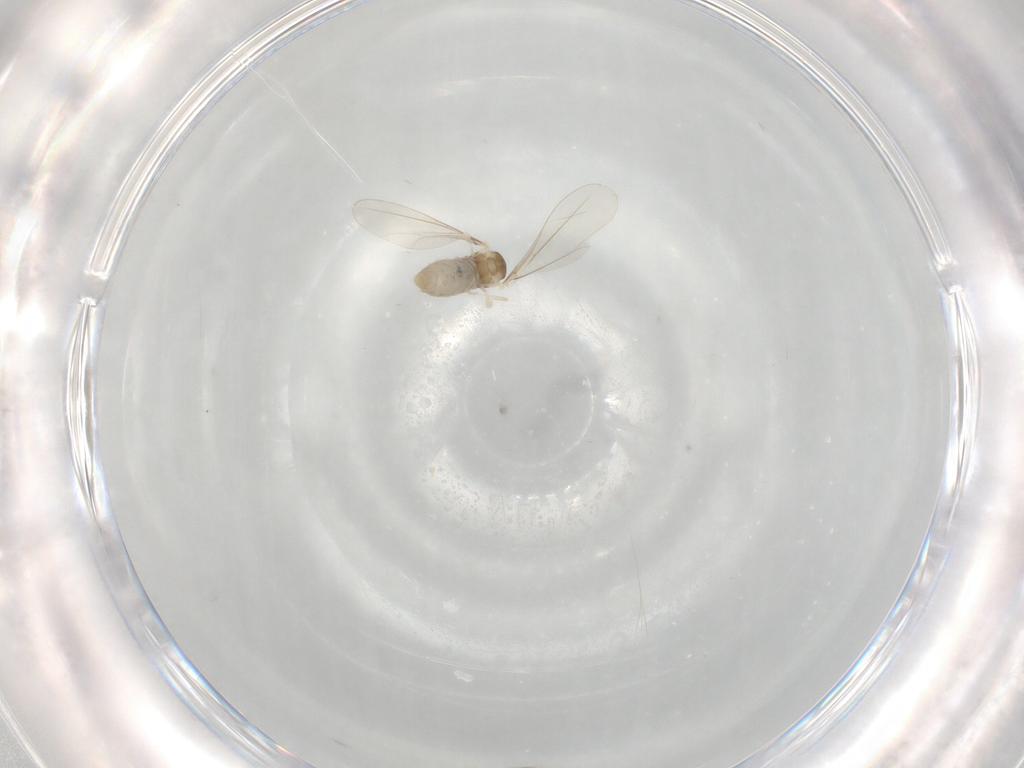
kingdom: Animalia
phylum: Arthropoda
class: Insecta
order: Diptera
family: Cecidomyiidae
